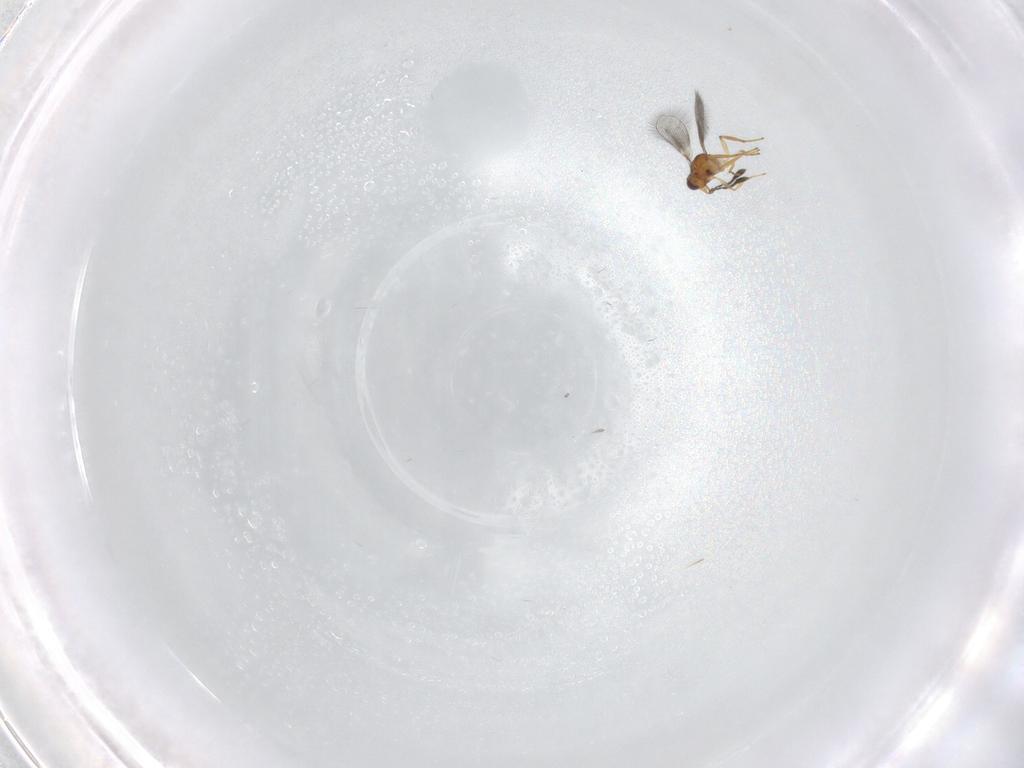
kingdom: Animalia
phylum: Arthropoda
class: Insecta
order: Hymenoptera
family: Mymaridae
